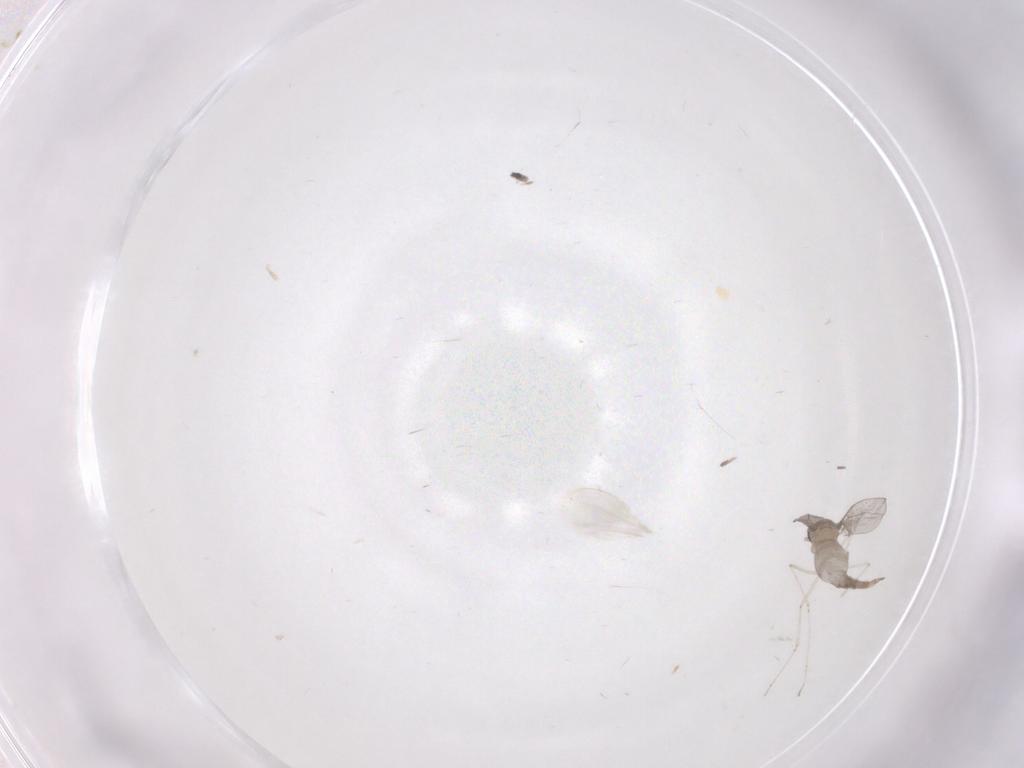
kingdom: Animalia
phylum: Arthropoda
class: Insecta
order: Diptera
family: Cecidomyiidae
